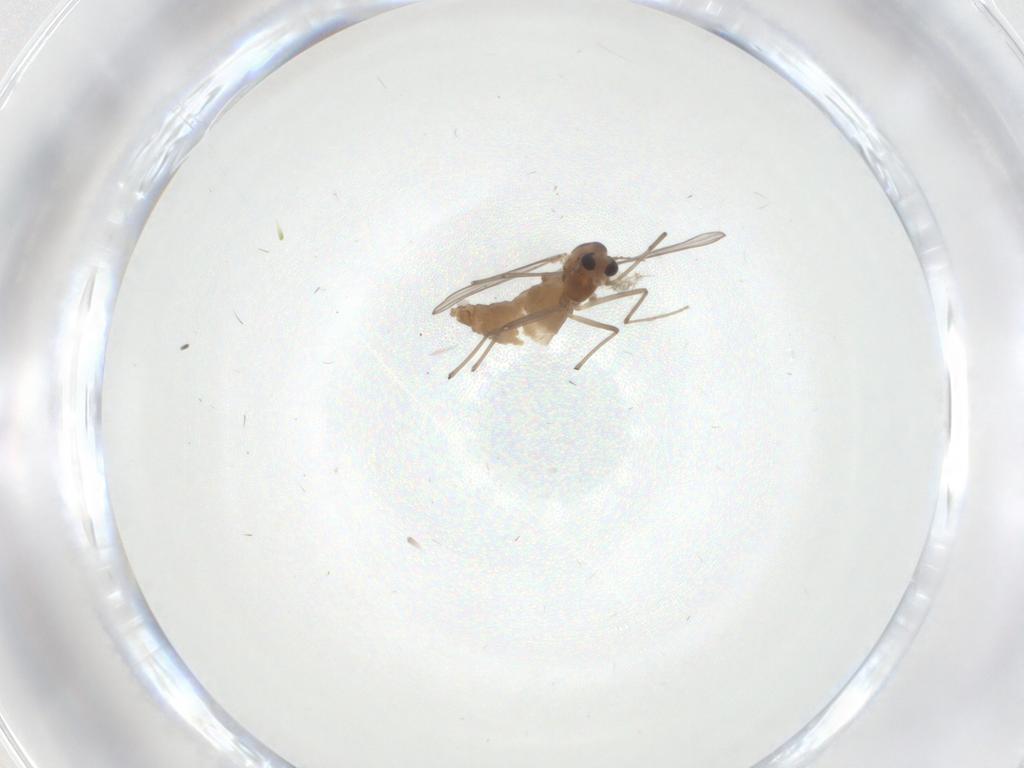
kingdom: Animalia
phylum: Arthropoda
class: Insecta
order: Diptera
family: Chironomidae
